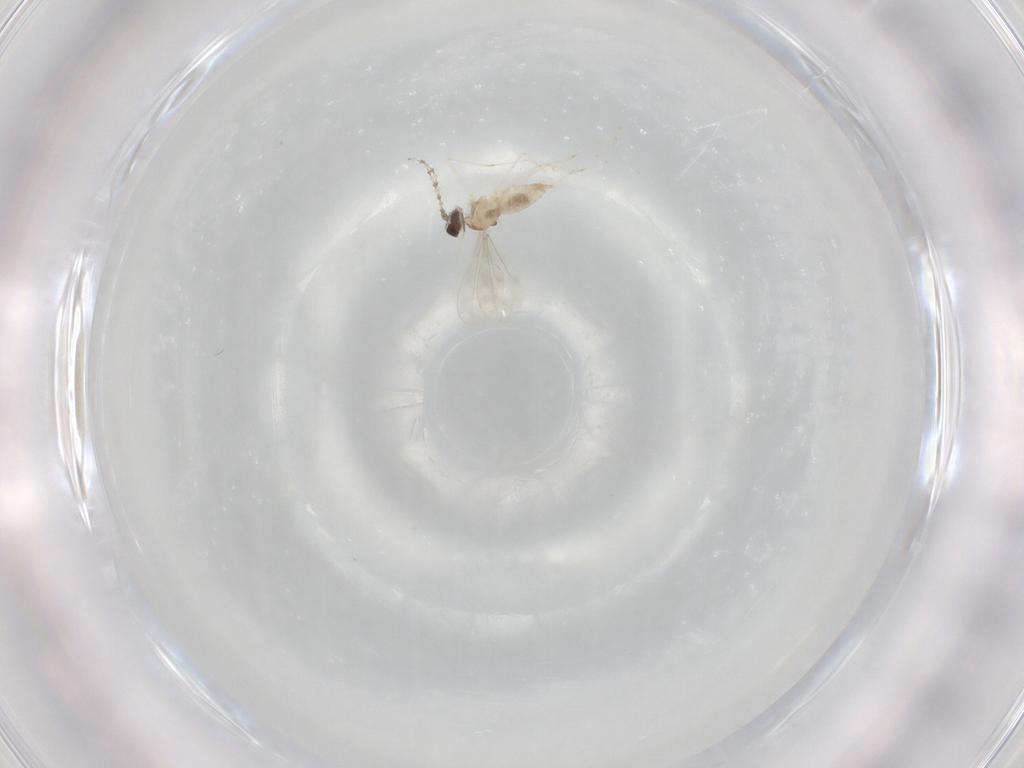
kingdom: Animalia
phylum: Arthropoda
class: Insecta
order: Diptera
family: Cecidomyiidae
